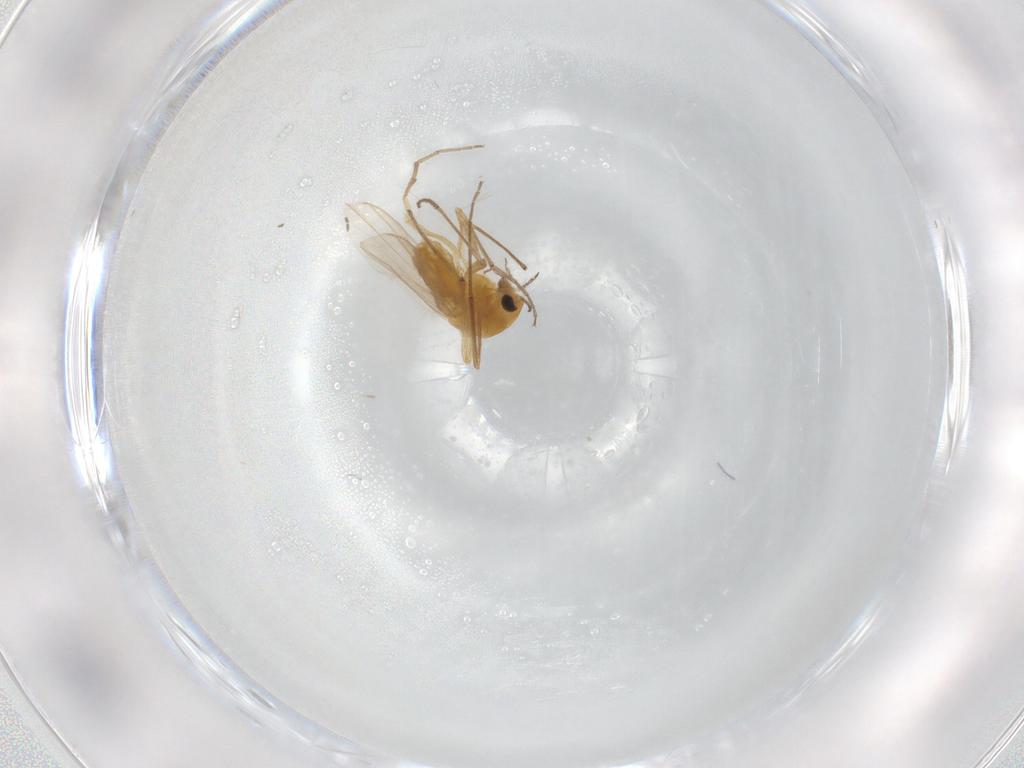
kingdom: Animalia
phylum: Arthropoda
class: Insecta
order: Diptera
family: Chironomidae
